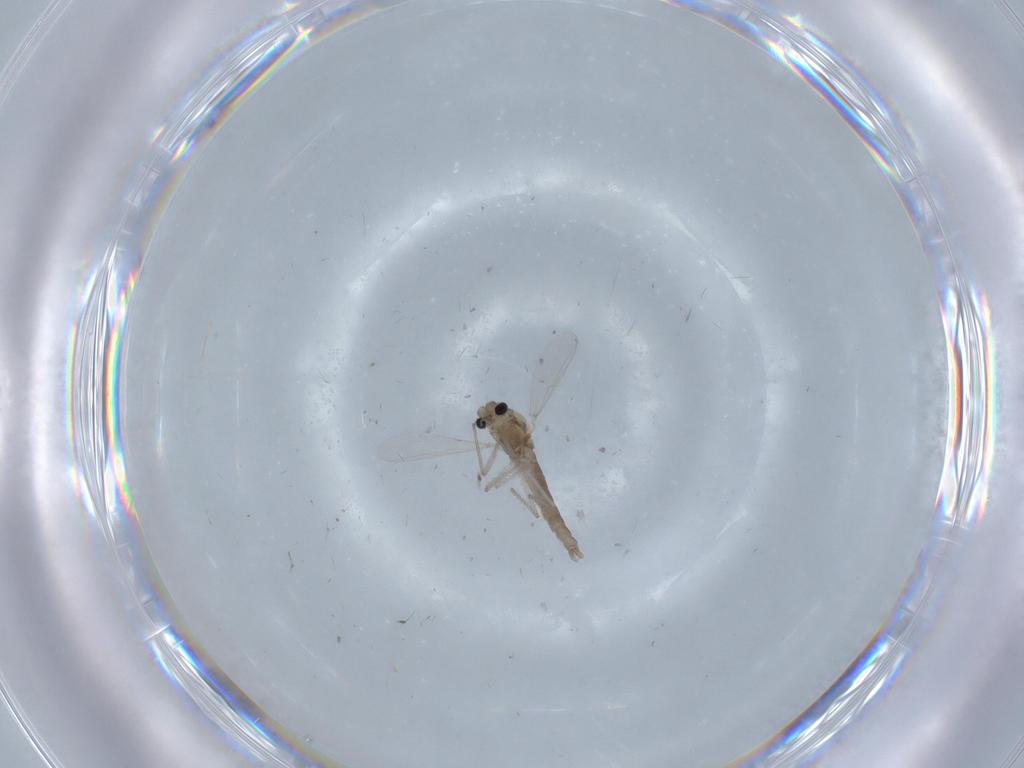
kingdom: Animalia
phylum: Arthropoda
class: Insecta
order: Diptera
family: Chironomidae
